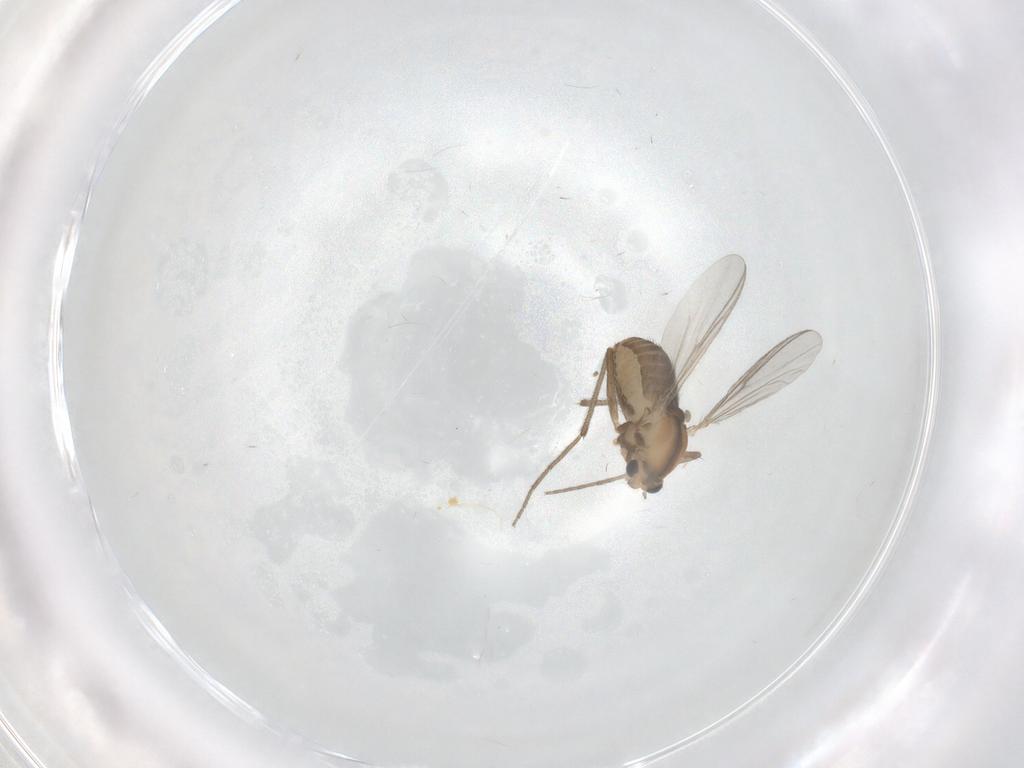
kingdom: Animalia
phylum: Arthropoda
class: Insecta
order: Diptera
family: Chironomidae
